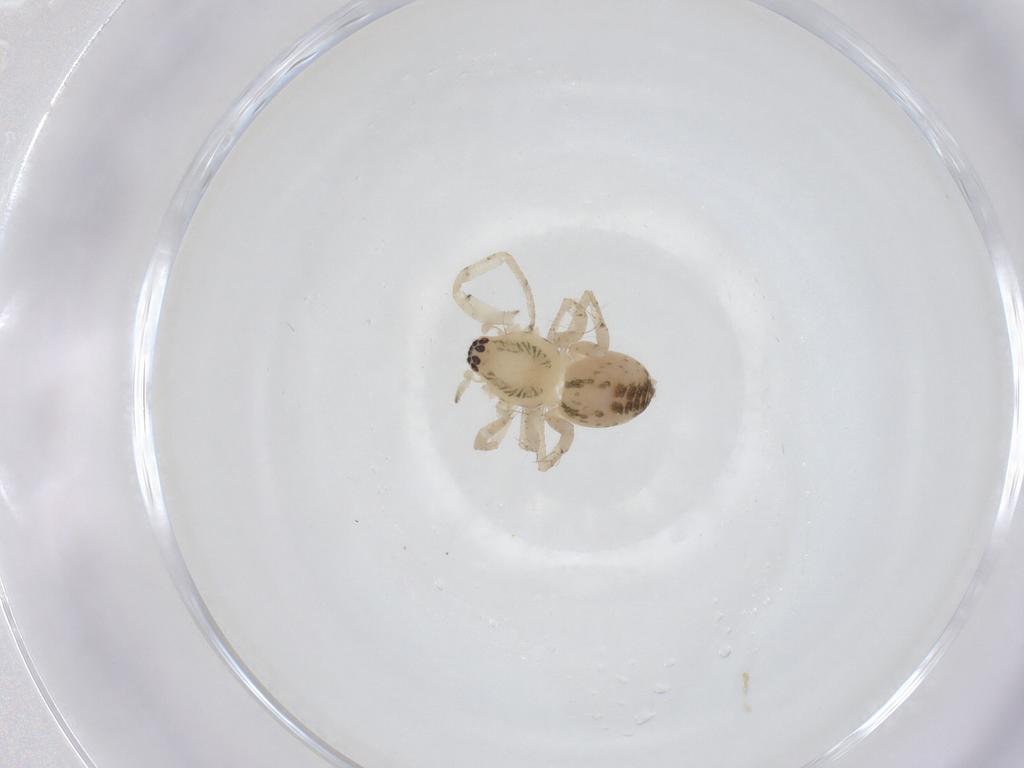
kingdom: Animalia
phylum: Arthropoda
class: Arachnida
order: Araneae
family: Anyphaenidae
